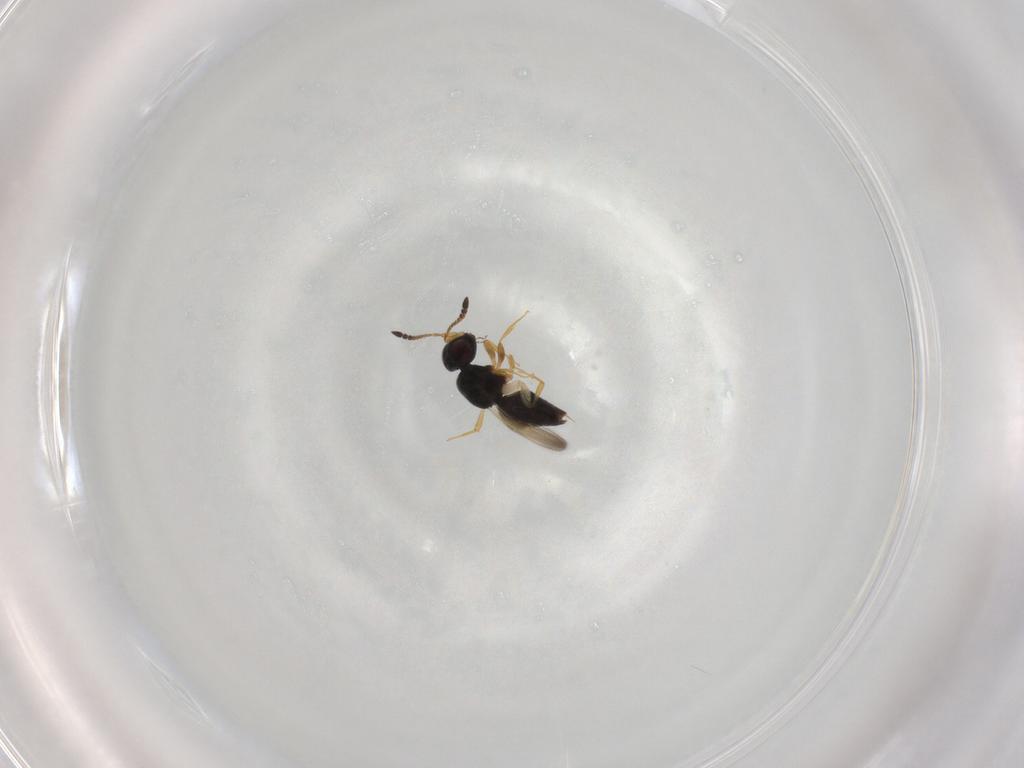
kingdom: Animalia
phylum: Arthropoda
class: Insecta
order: Hymenoptera
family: Ceraphronidae
